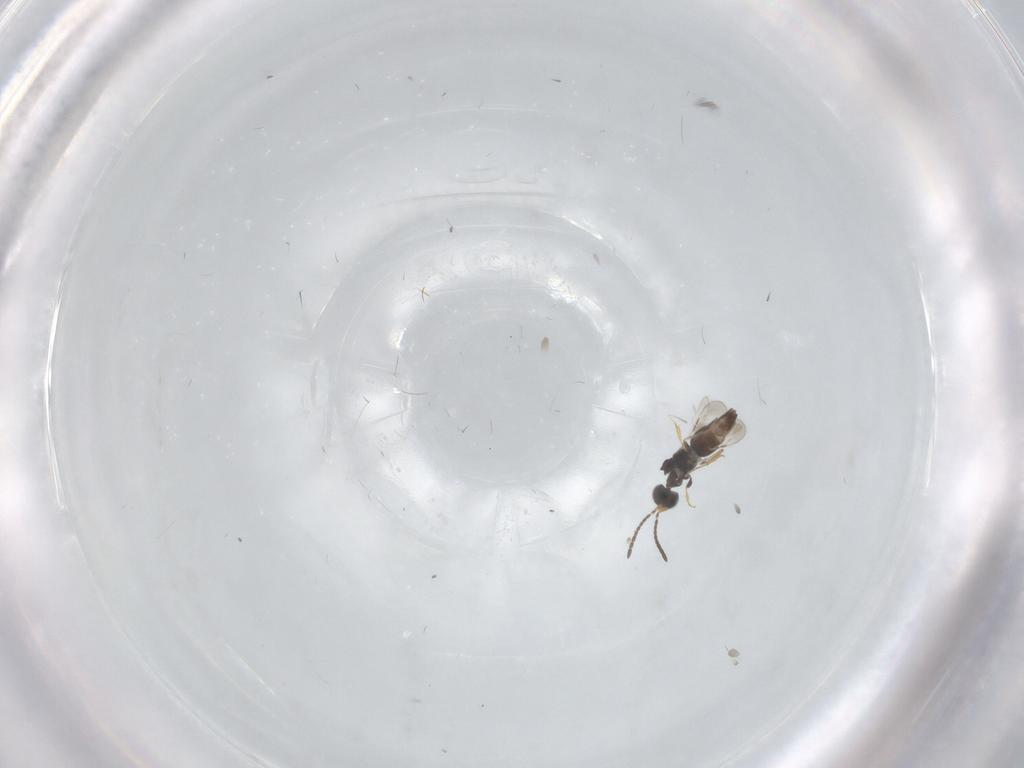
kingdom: Animalia
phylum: Arthropoda
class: Insecta
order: Hymenoptera
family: Ceraphronidae
